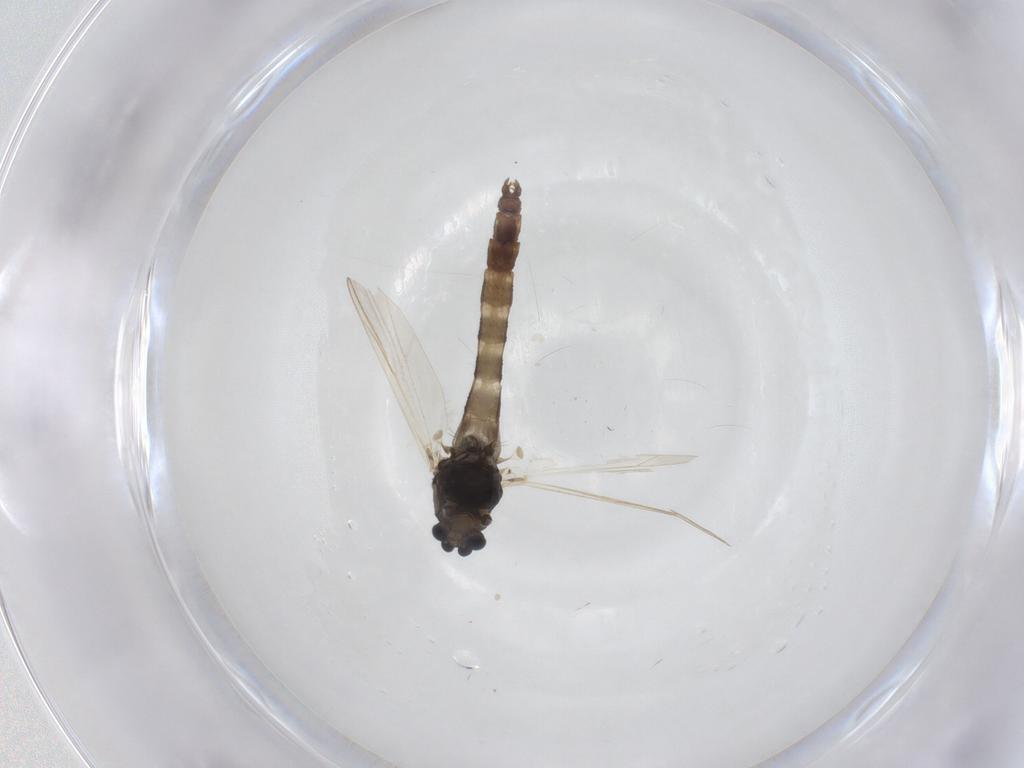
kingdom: Animalia
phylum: Arthropoda
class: Insecta
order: Diptera
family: Chironomidae
